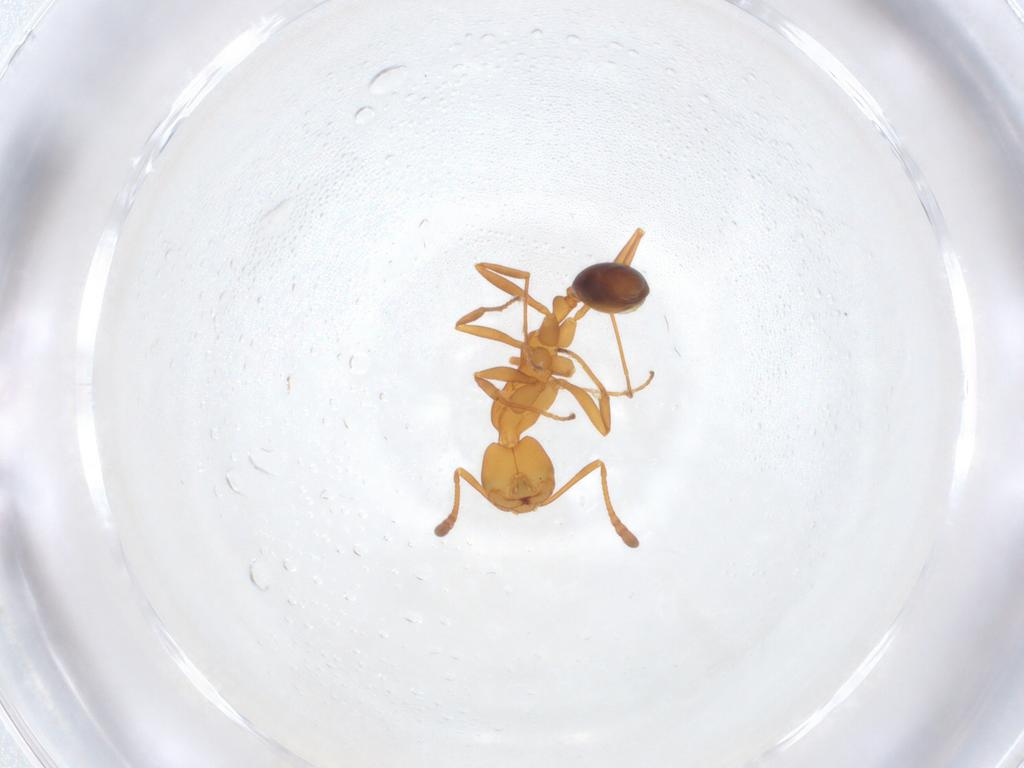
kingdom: Animalia
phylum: Arthropoda
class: Insecta
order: Hymenoptera
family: Formicidae
